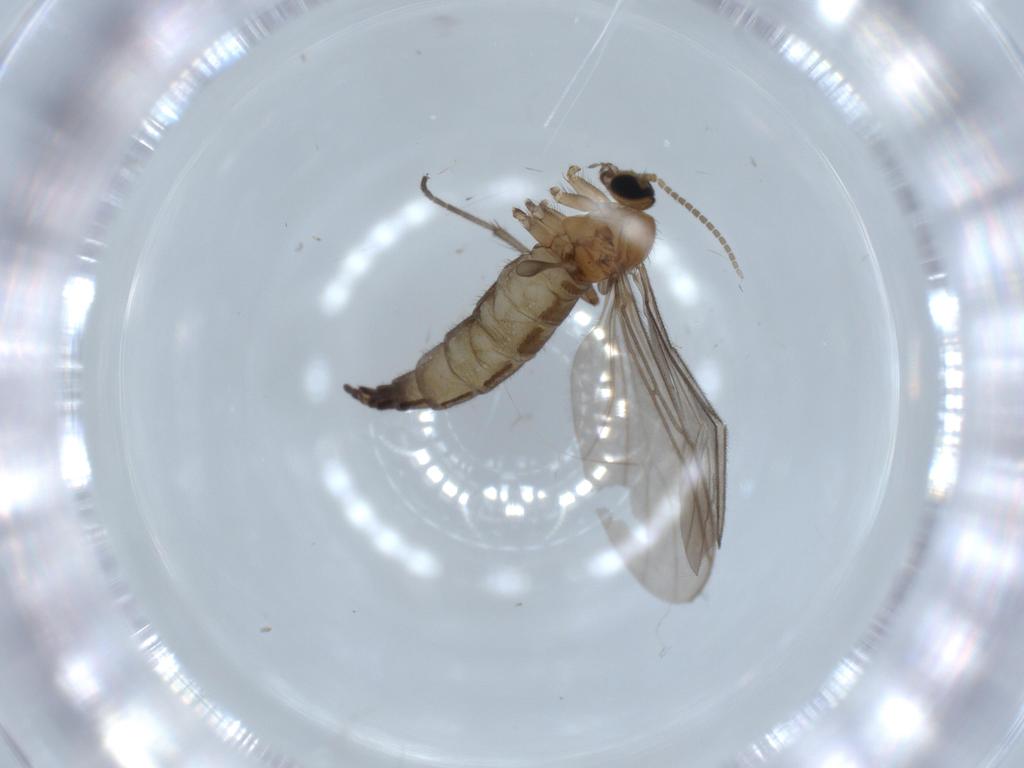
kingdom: Animalia
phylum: Arthropoda
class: Insecta
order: Diptera
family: Sciaridae
